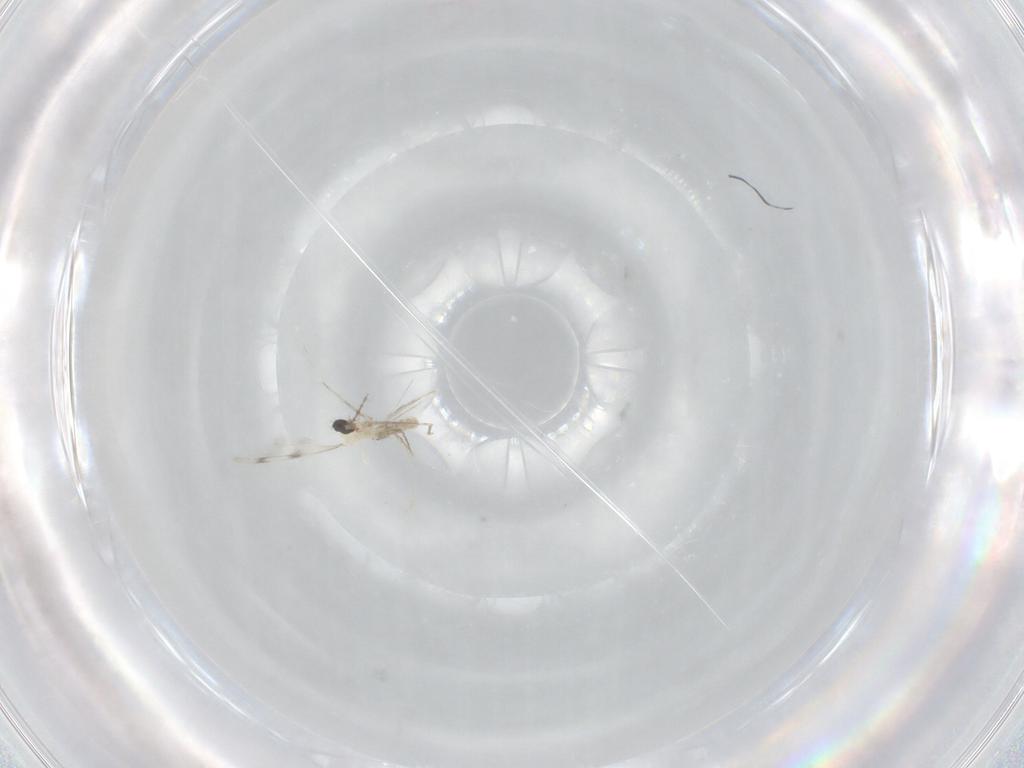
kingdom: Animalia
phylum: Arthropoda
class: Insecta
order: Diptera
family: Cecidomyiidae
